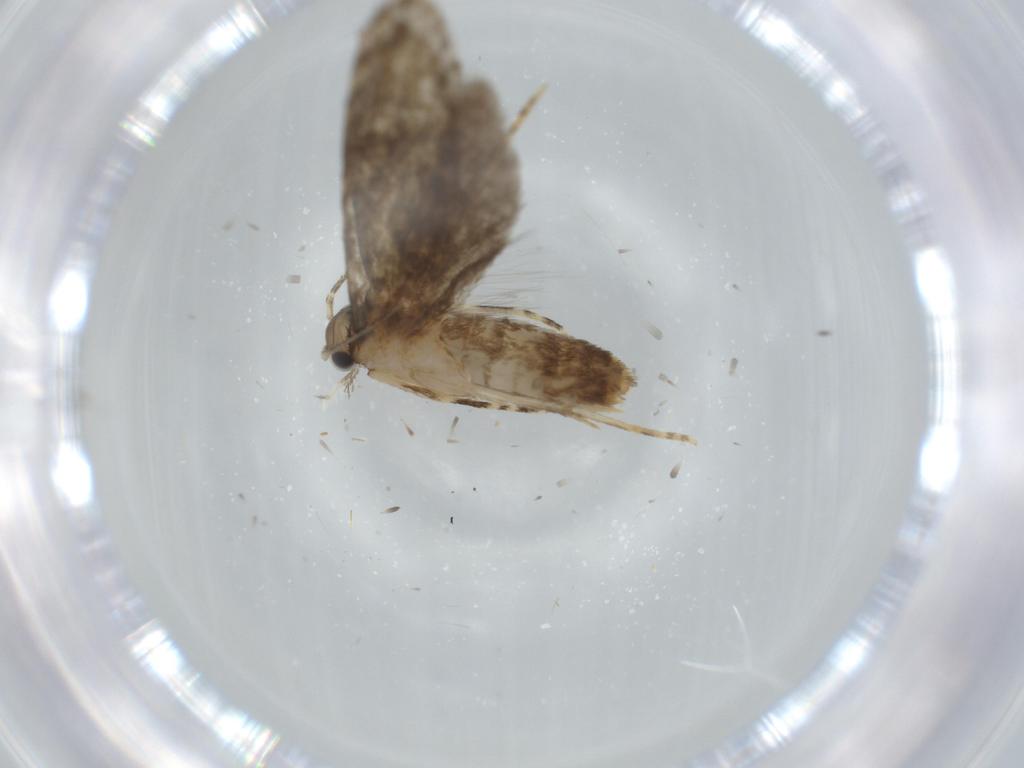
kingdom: Animalia
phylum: Arthropoda
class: Insecta
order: Lepidoptera
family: Tineidae
